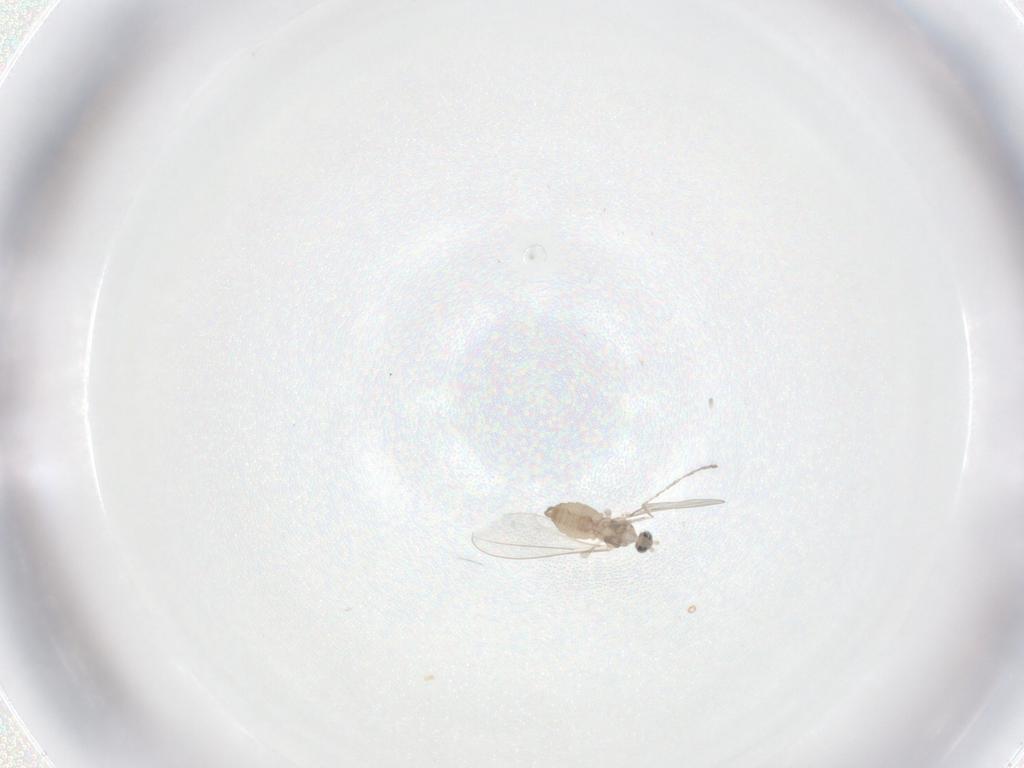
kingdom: Animalia
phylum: Arthropoda
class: Insecta
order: Diptera
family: Cecidomyiidae
